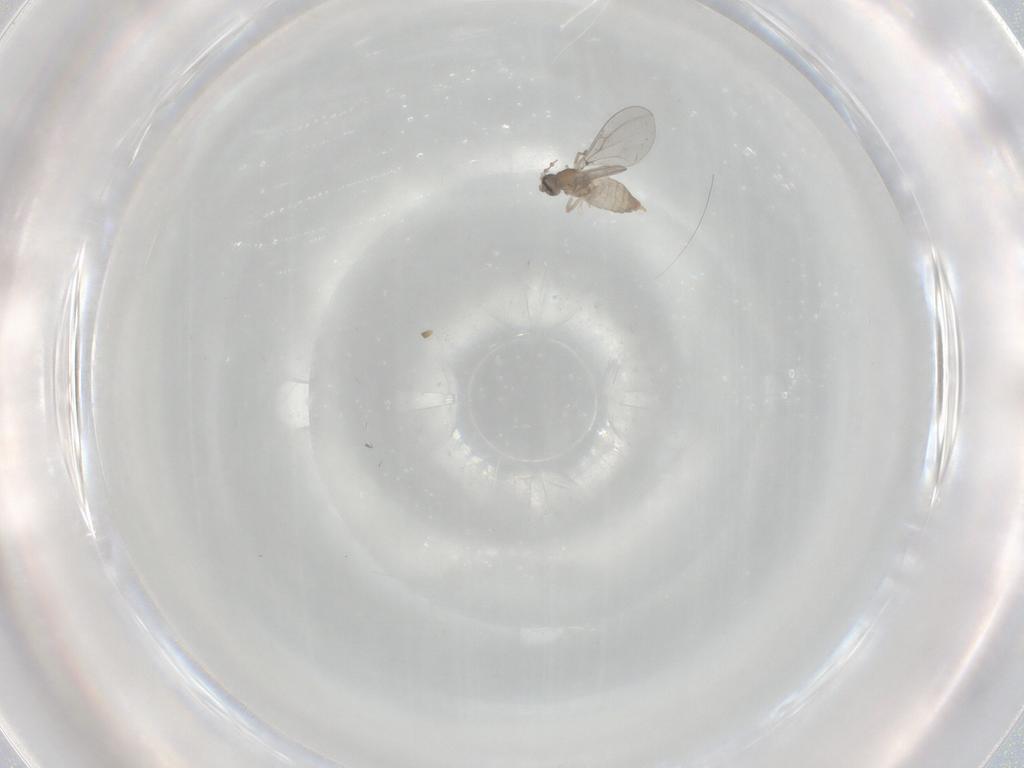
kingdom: Animalia
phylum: Arthropoda
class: Insecta
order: Diptera
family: Cecidomyiidae
